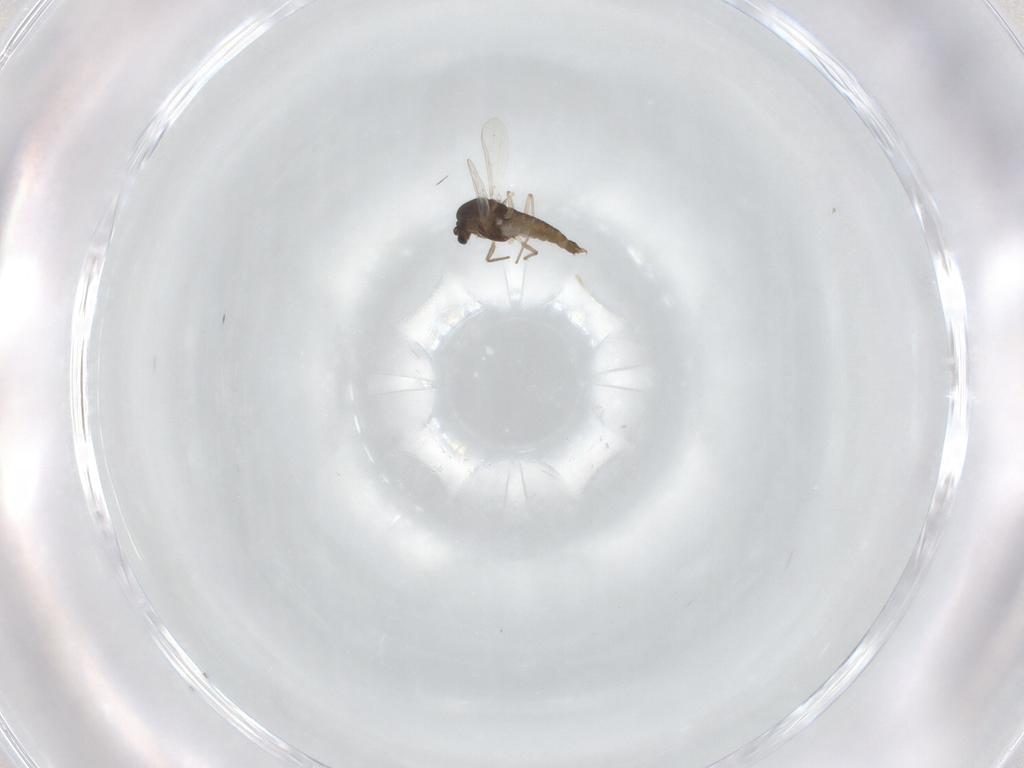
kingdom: Animalia
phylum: Arthropoda
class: Insecta
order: Diptera
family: Chironomidae
